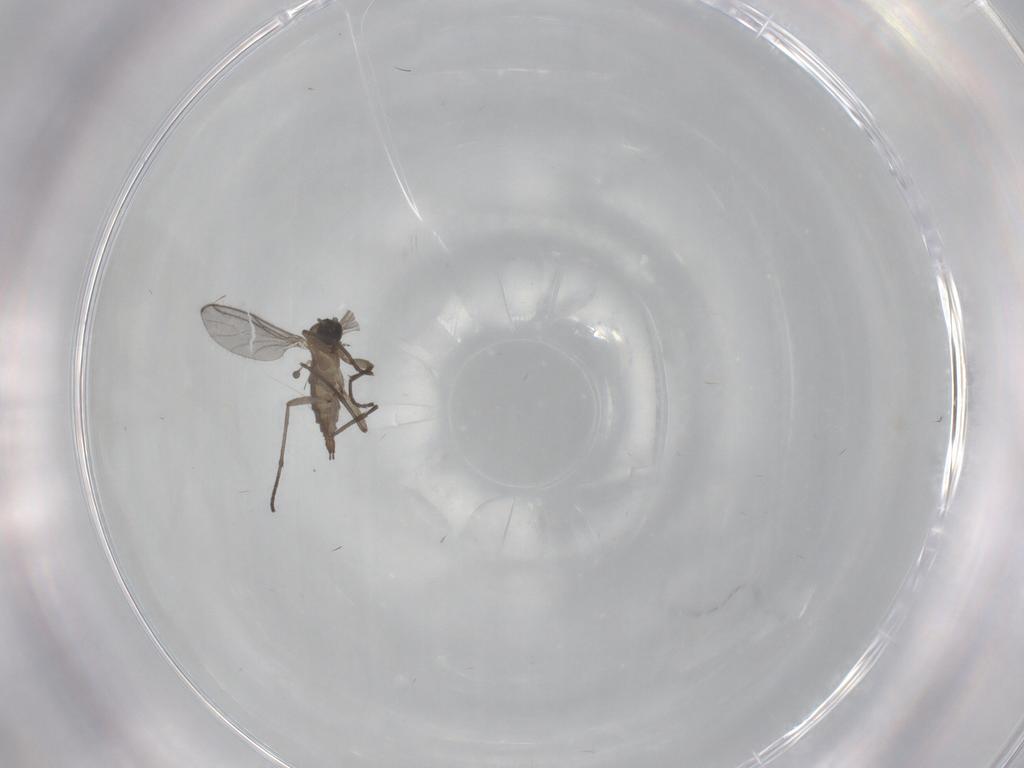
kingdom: Animalia
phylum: Arthropoda
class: Insecta
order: Diptera
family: Sciaridae
